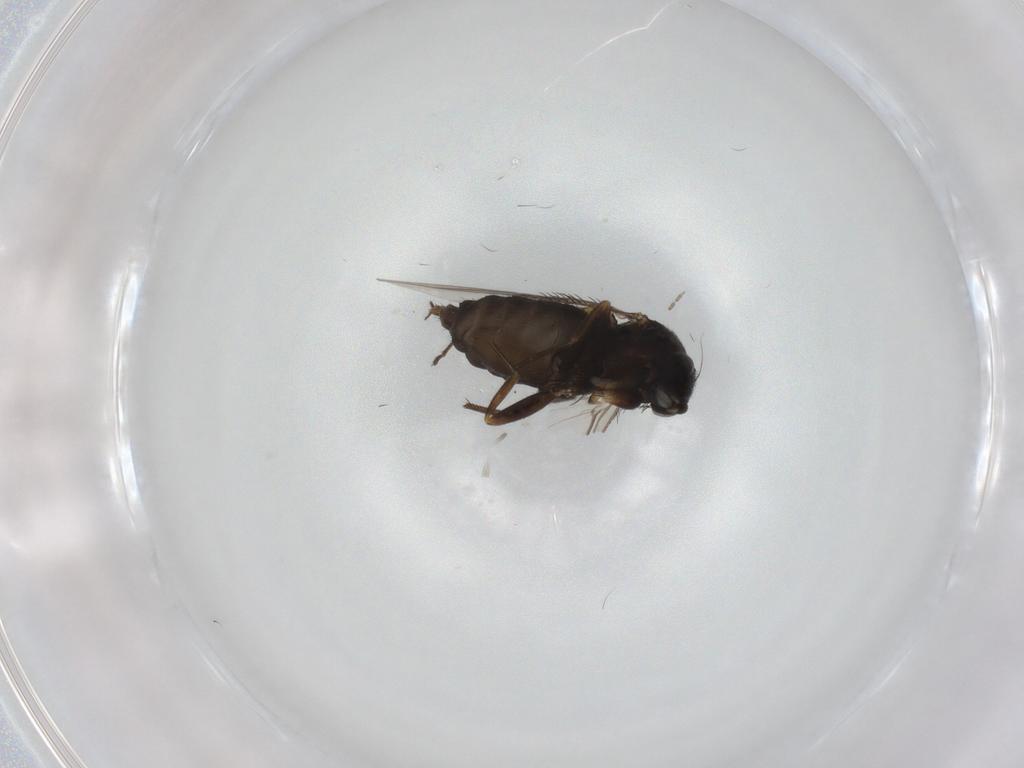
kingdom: Animalia
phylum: Arthropoda
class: Insecta
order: Diptera
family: Phoridae
